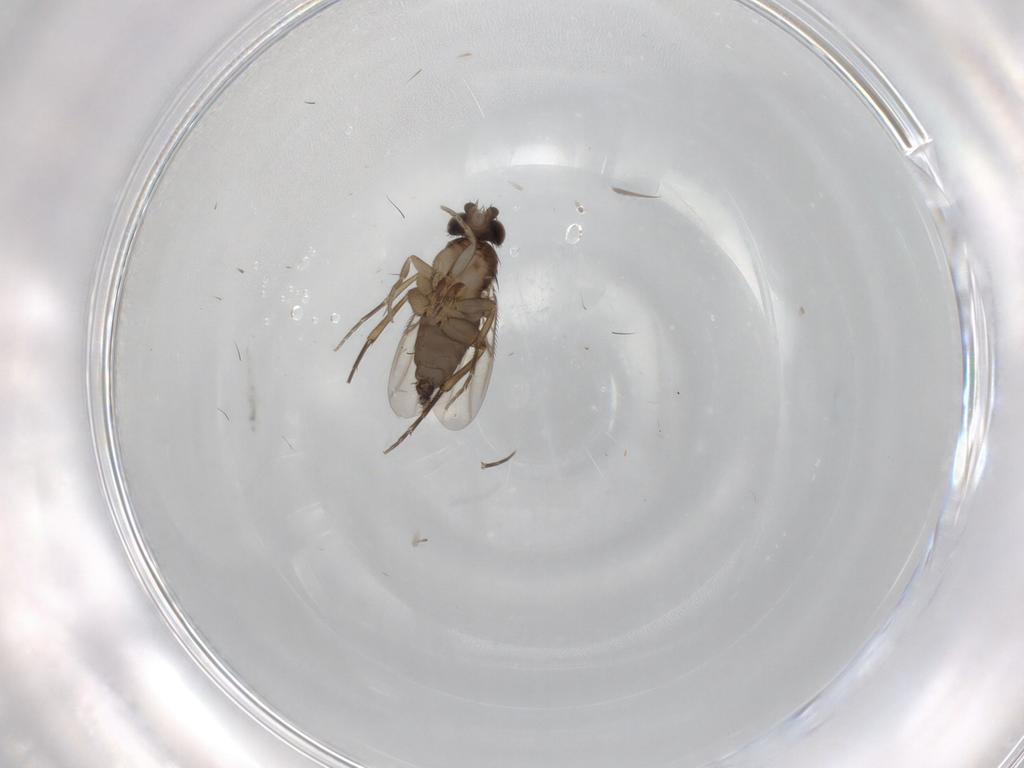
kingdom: Animalia
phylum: Arthropoda
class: Insecta
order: Diptera
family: Phoridae
